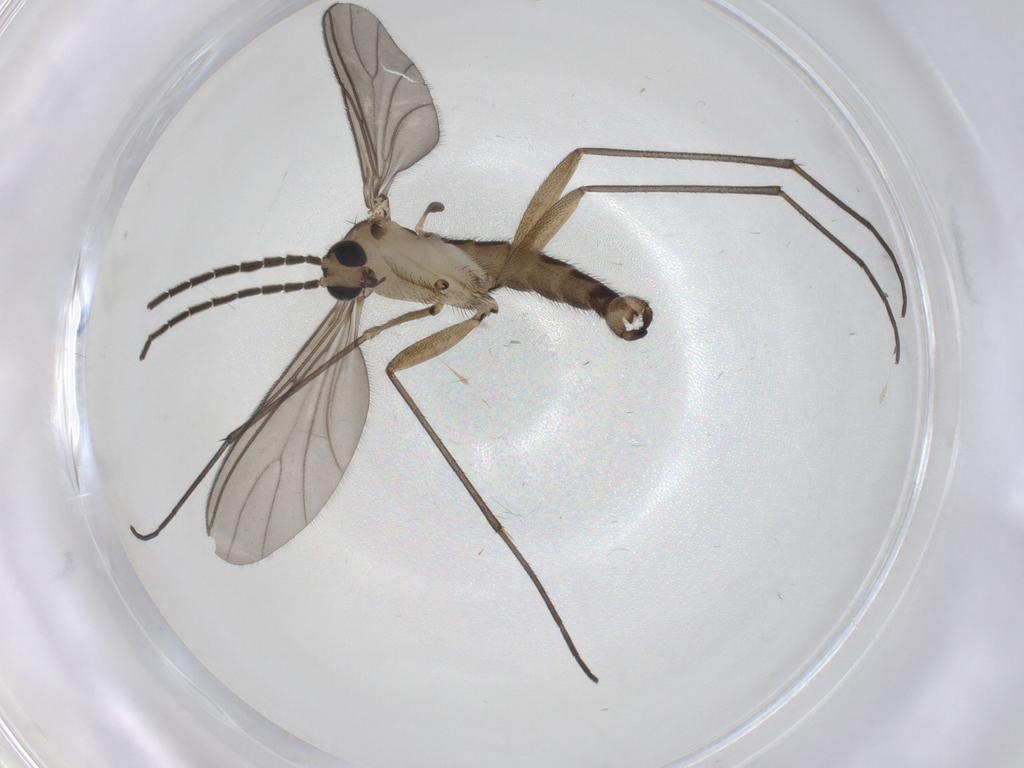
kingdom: Animalia
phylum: Arthropoda
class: Insecta
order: Diptera
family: Sciaridae
